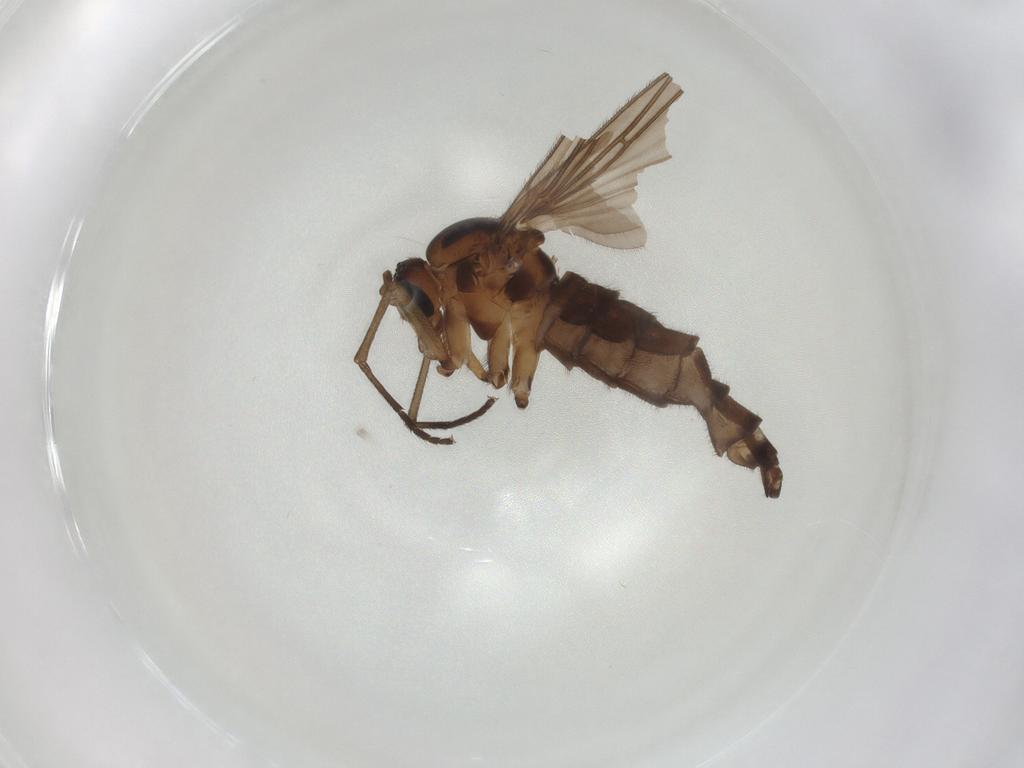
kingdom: Animalia
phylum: Arthropoda
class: Insecta
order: Diptera
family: Sciaridae
